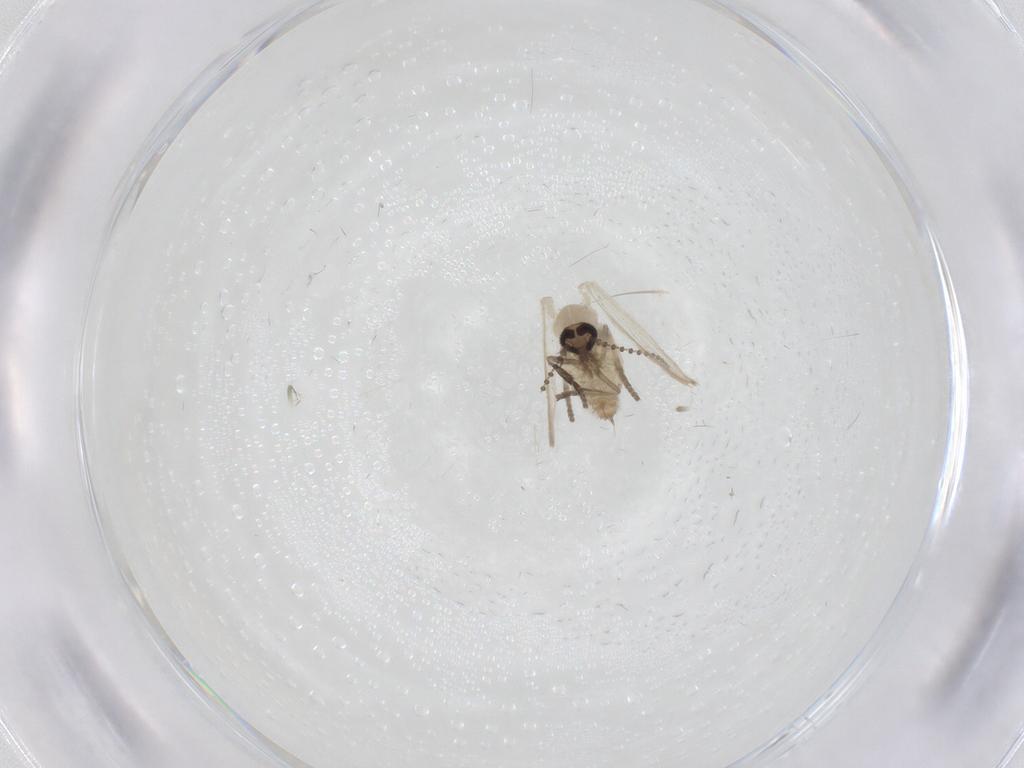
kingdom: Animalia
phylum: Arthropoda
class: Insecta
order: Diptera
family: Psychodidae
